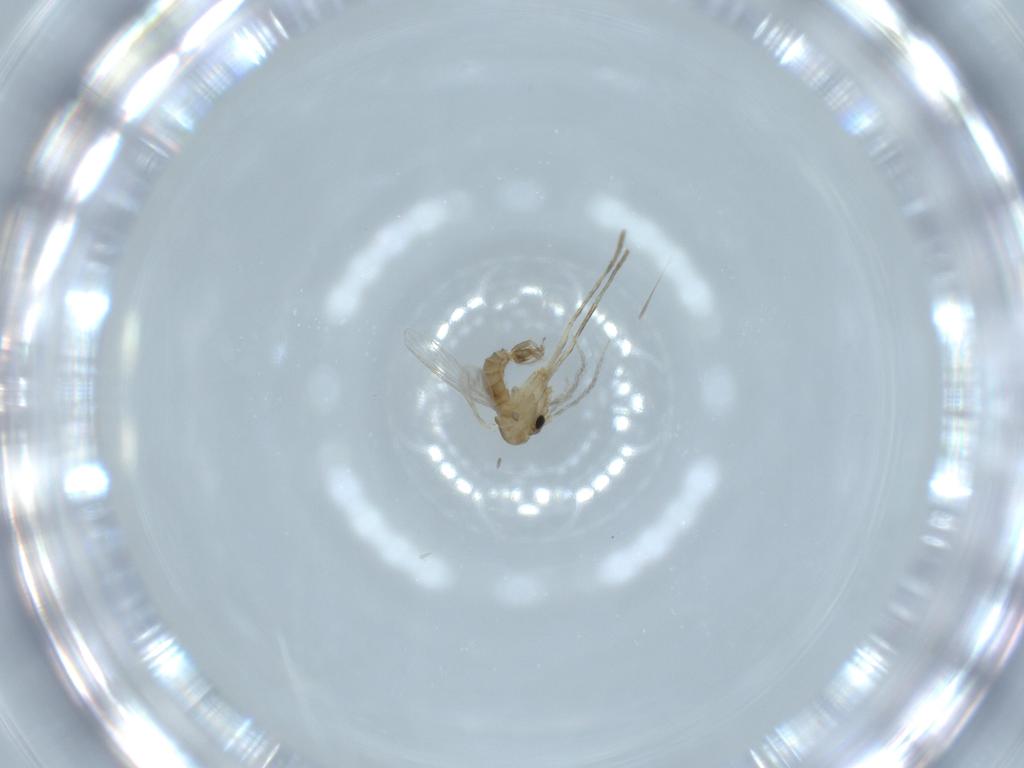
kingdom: Animalia
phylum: Arthropoda
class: Insecta
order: Diptera
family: Psychodidae
